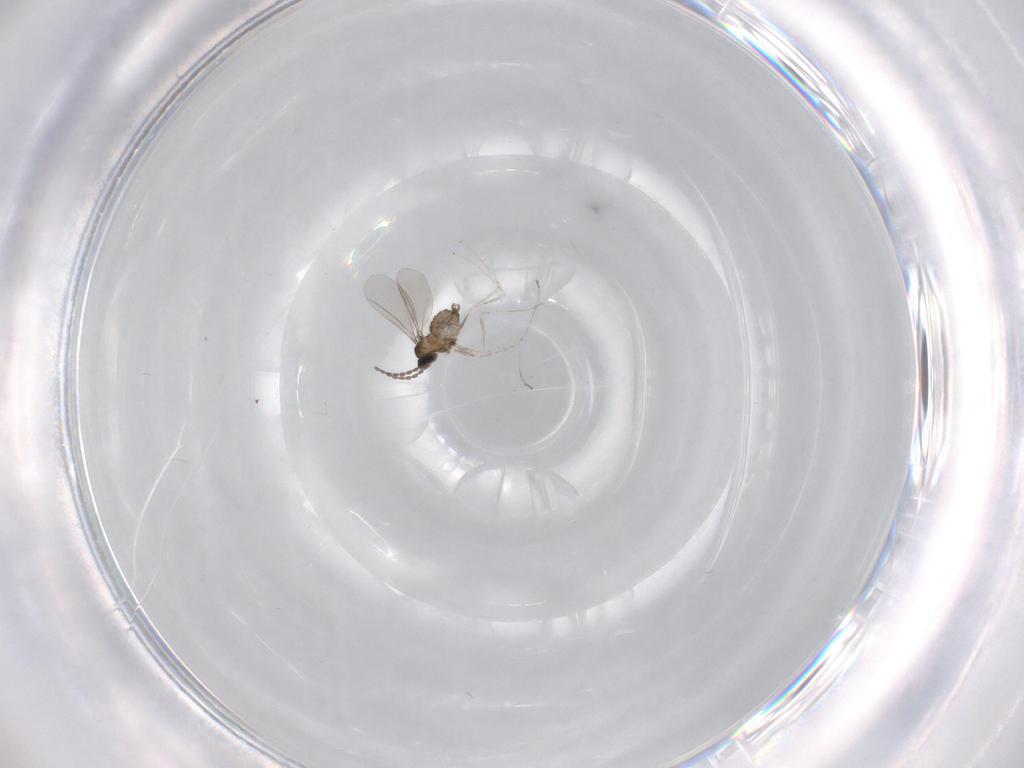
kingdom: Animalia
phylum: Arthropoda
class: Insecta
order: Diptera
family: Cecidomyiidae
